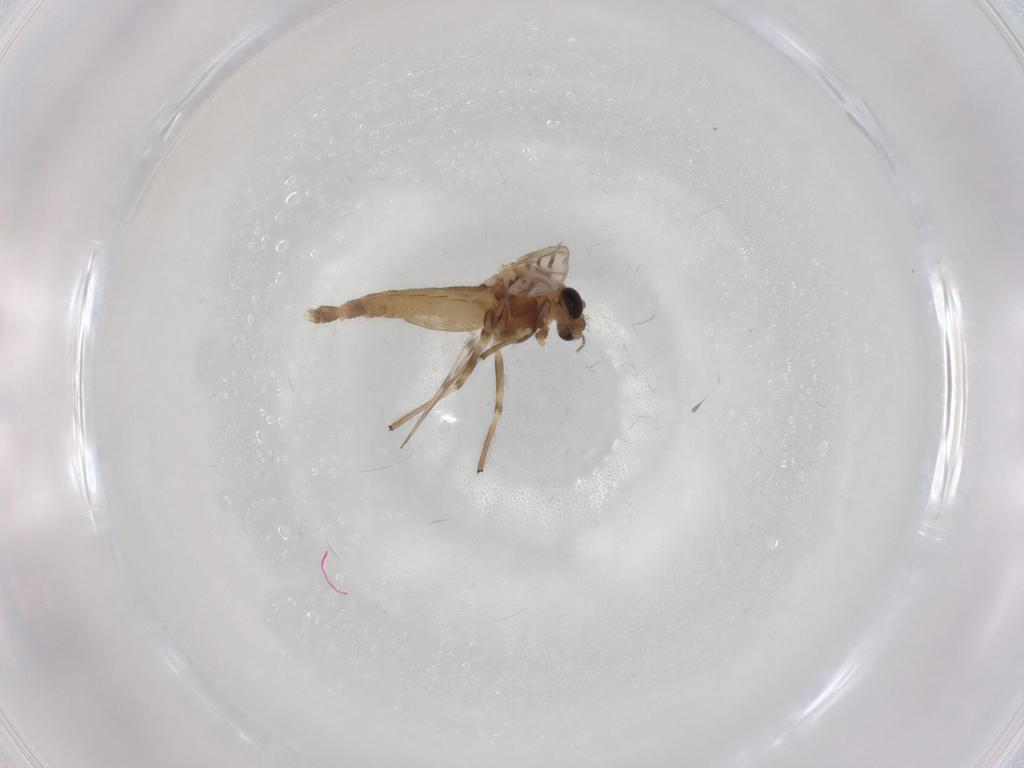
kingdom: Animalia
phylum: Arthropoda
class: Insecta
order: Diptera
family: Chironomidae
